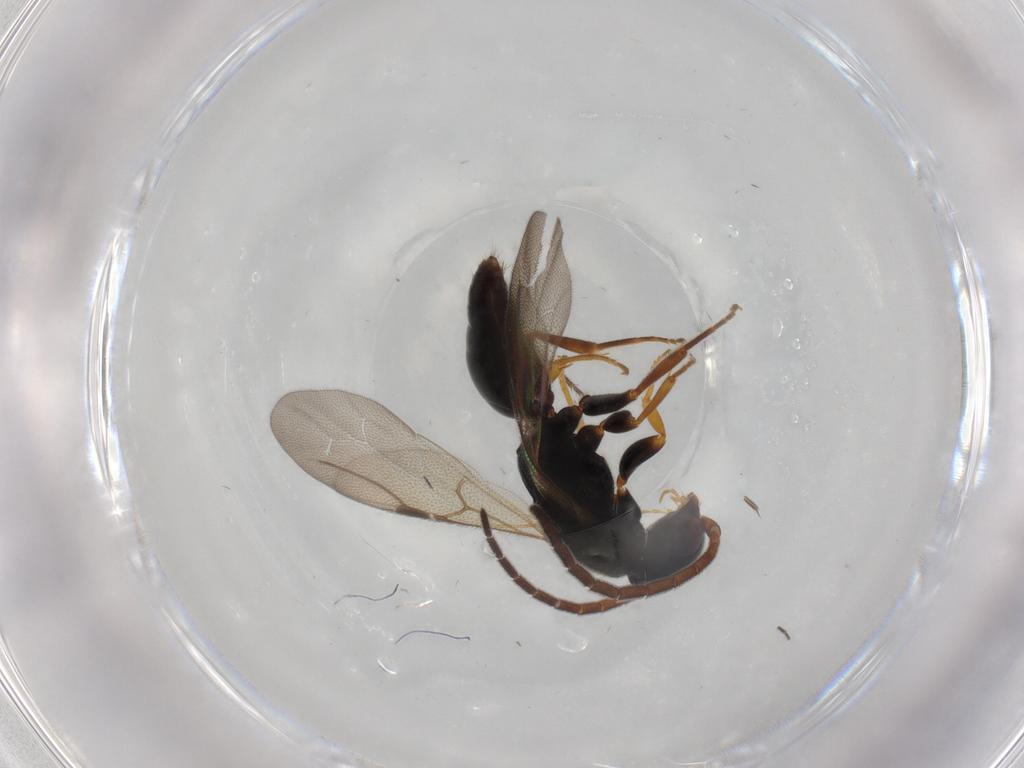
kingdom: Animalia
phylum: Arthropoda
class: Insecta
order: Hymenoptera
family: Bethylidae
